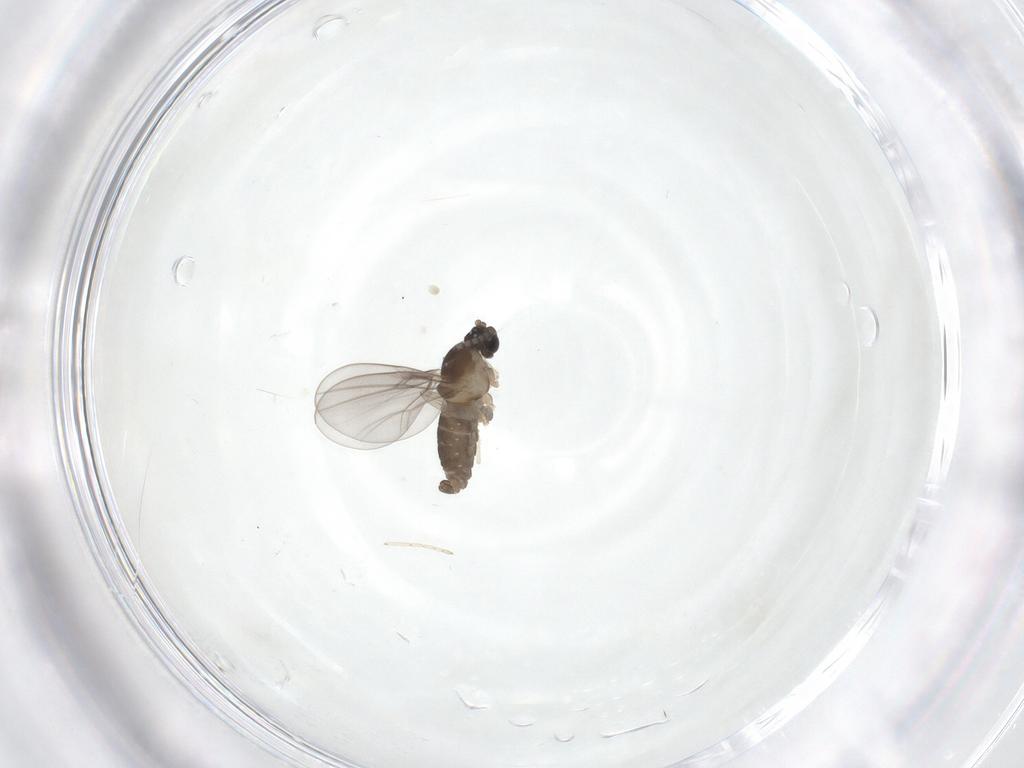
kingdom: Animalia
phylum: Arthropoda
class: Insecta
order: Diptera
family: Cecidomyiidae
